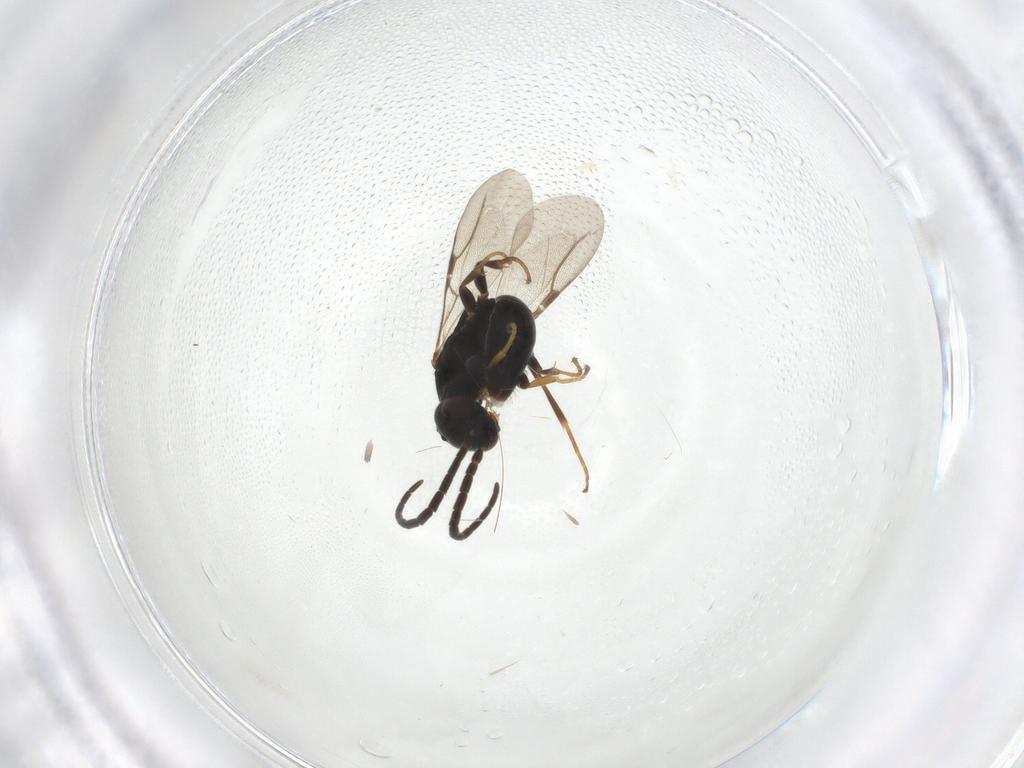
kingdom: Animalia
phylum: Arthropoda
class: Insecta
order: Hymenoptera
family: Bethylidae
